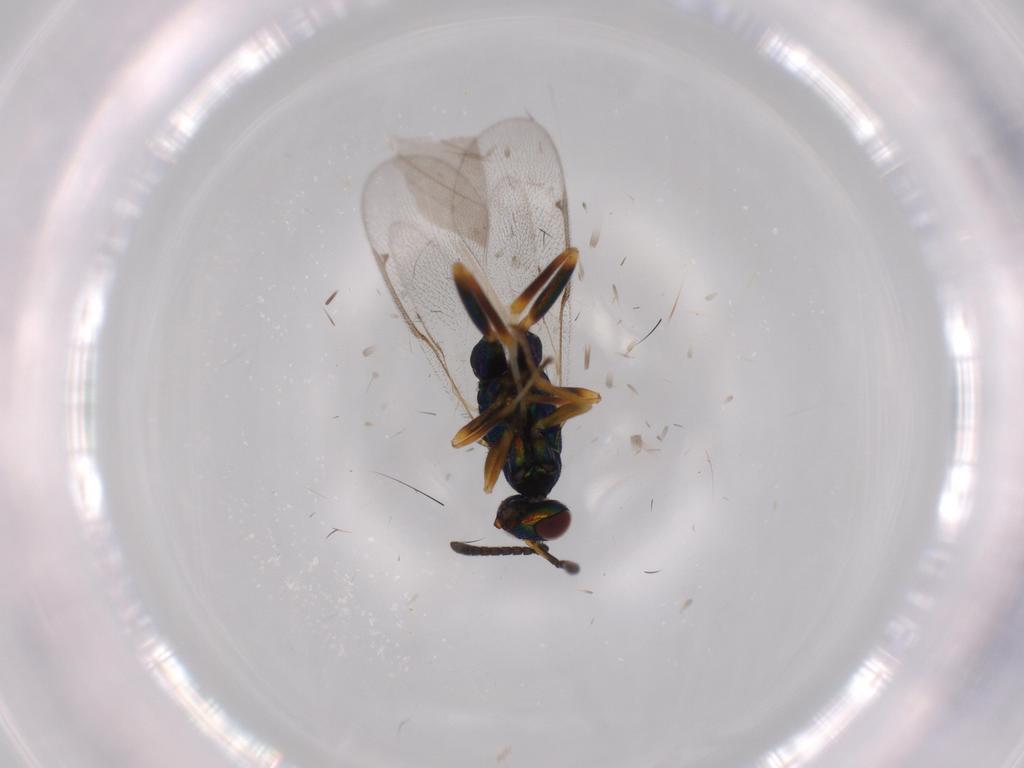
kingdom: Animalia
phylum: Arthropoda
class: Insecta
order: Hymenoptera
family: Torymidae
